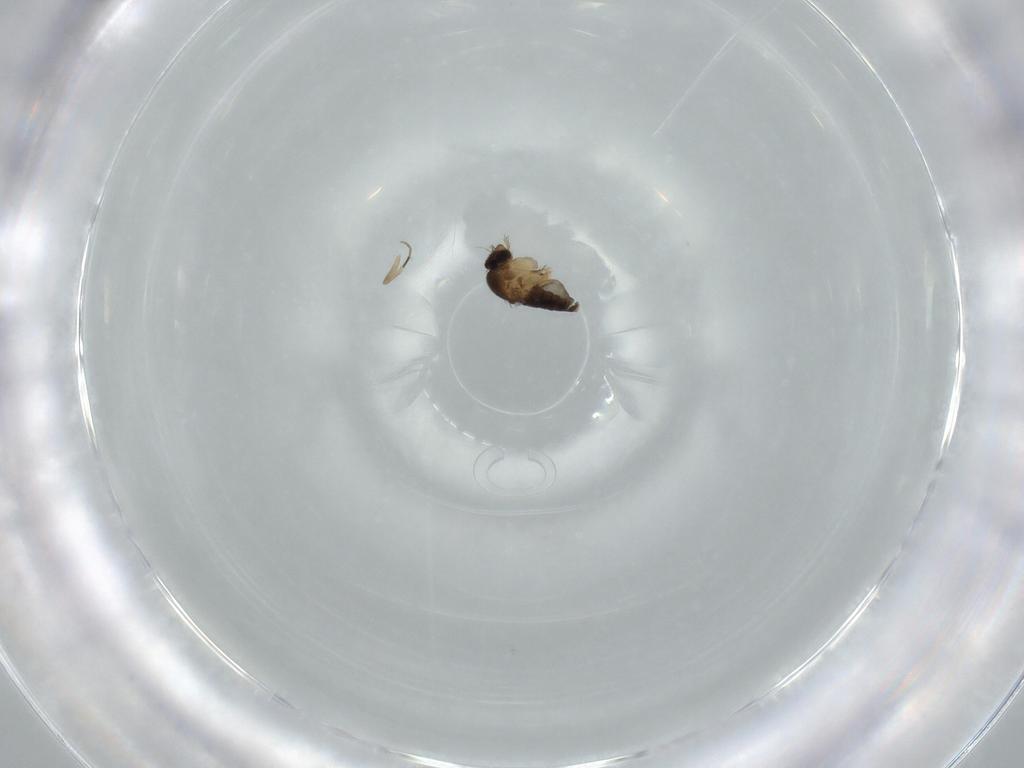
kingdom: Animalia
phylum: Arthropoda
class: Insecta
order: Diptera
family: Phoridae
